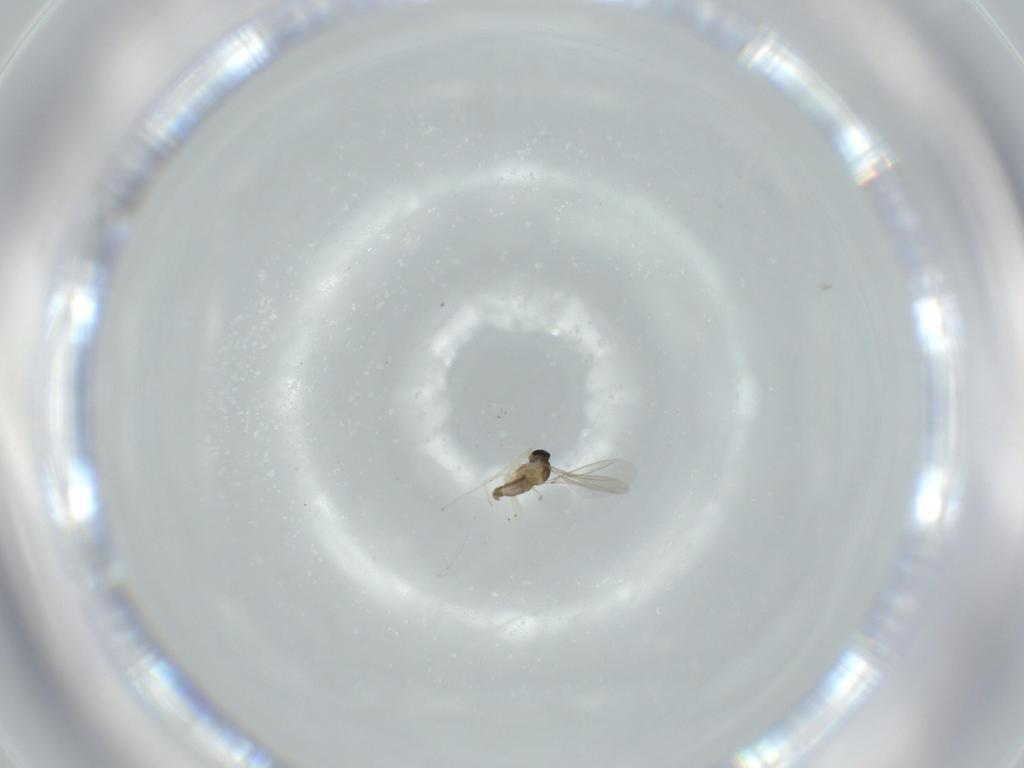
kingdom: Animalia
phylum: Arthropoda
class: Insecta
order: Diptera
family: Cecidomyiidae
